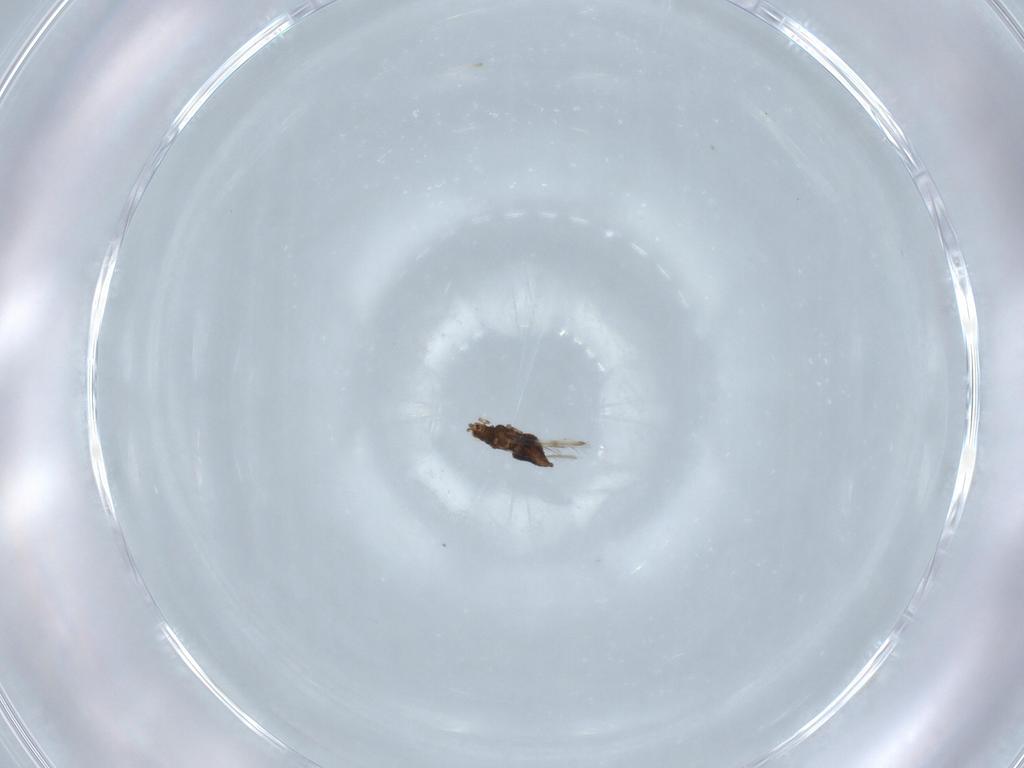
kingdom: Animalia
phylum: Arthropoda
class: Insecta
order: Thysanoptera
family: Thripidae
